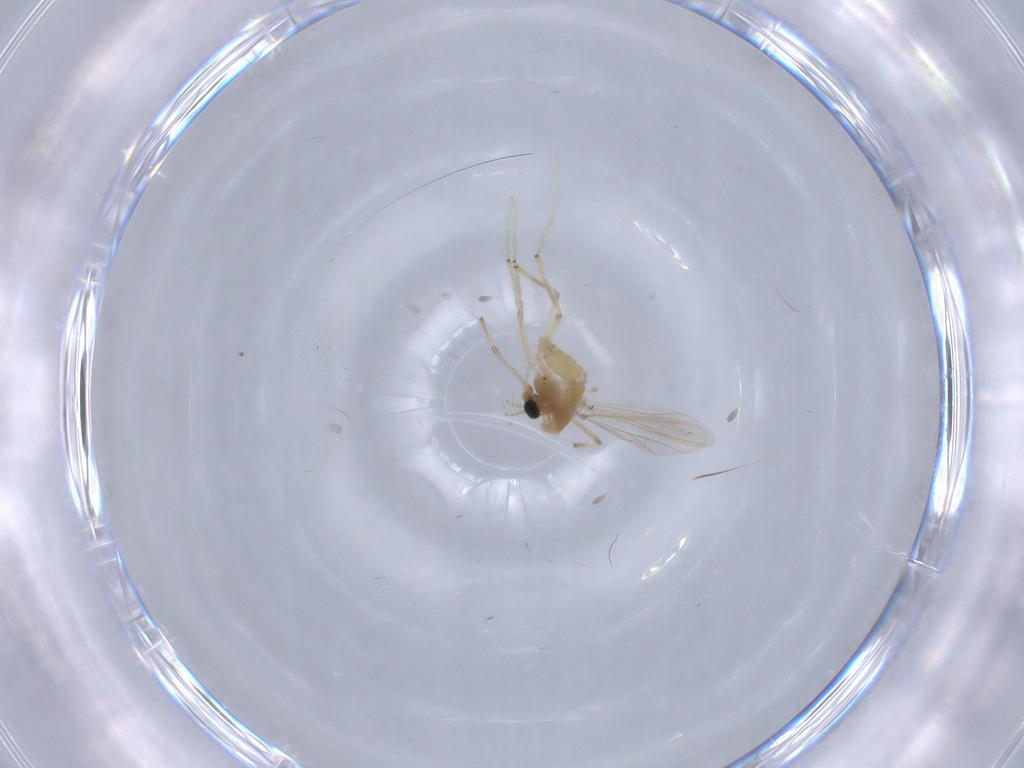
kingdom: Animalia
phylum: Arthropoda
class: Insecta
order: Diptera
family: Chironomidae
